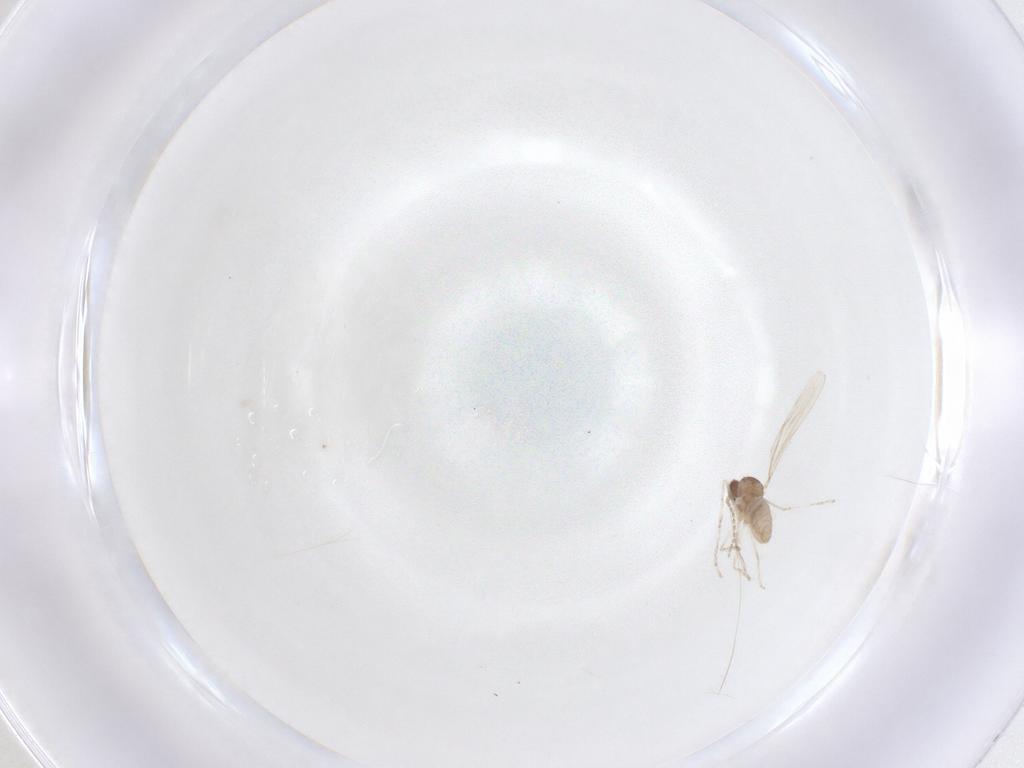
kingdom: Animalia
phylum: Arthropoda
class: Insecta
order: Diptera
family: Cecidomyiidae
